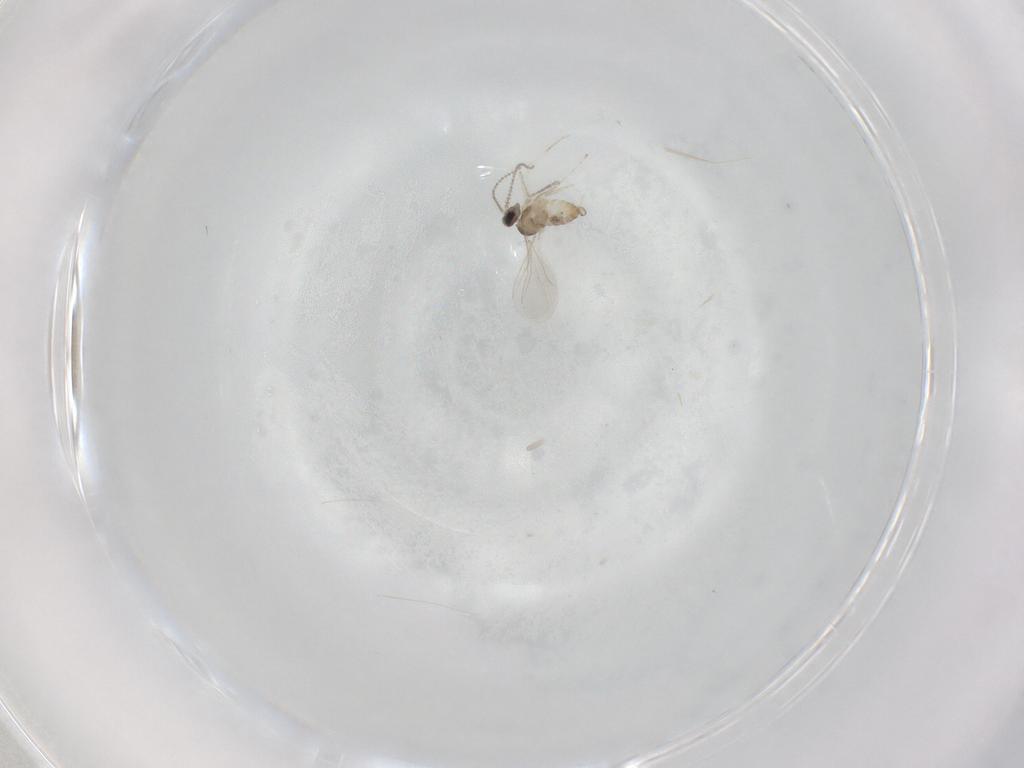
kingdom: Animalia
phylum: Arthropoda
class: Insecta
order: Diptera
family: Cecidomyiidae
